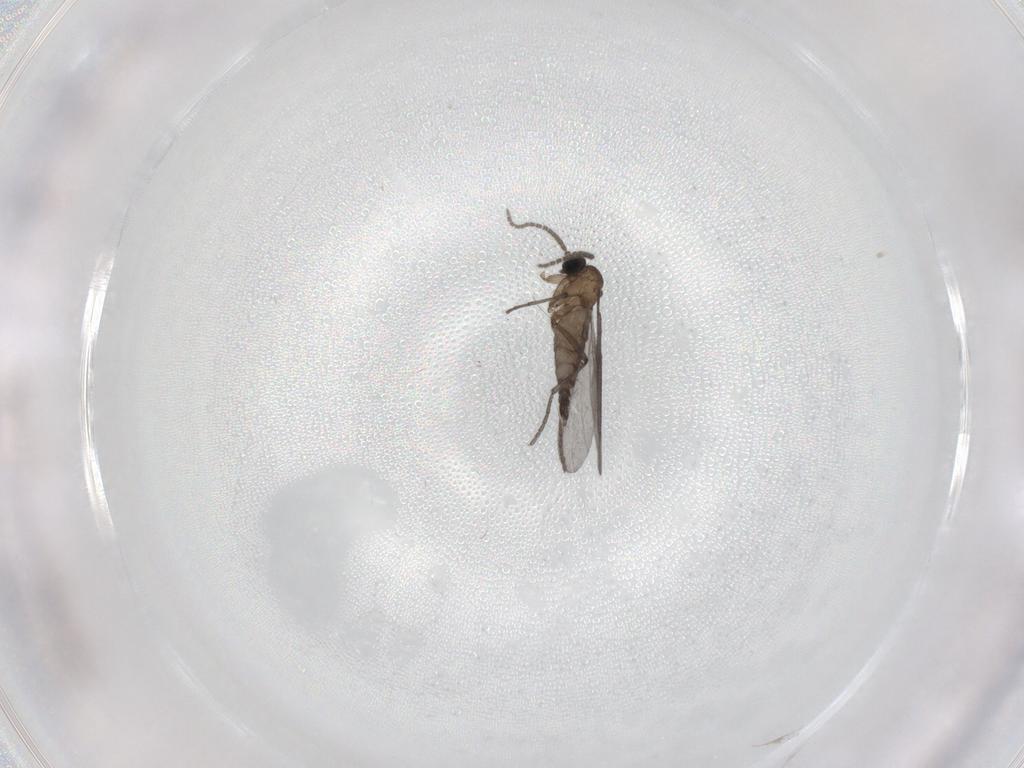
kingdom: Animalia
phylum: Arthropoda
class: Insecta
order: Diptera
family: Sciaridae
